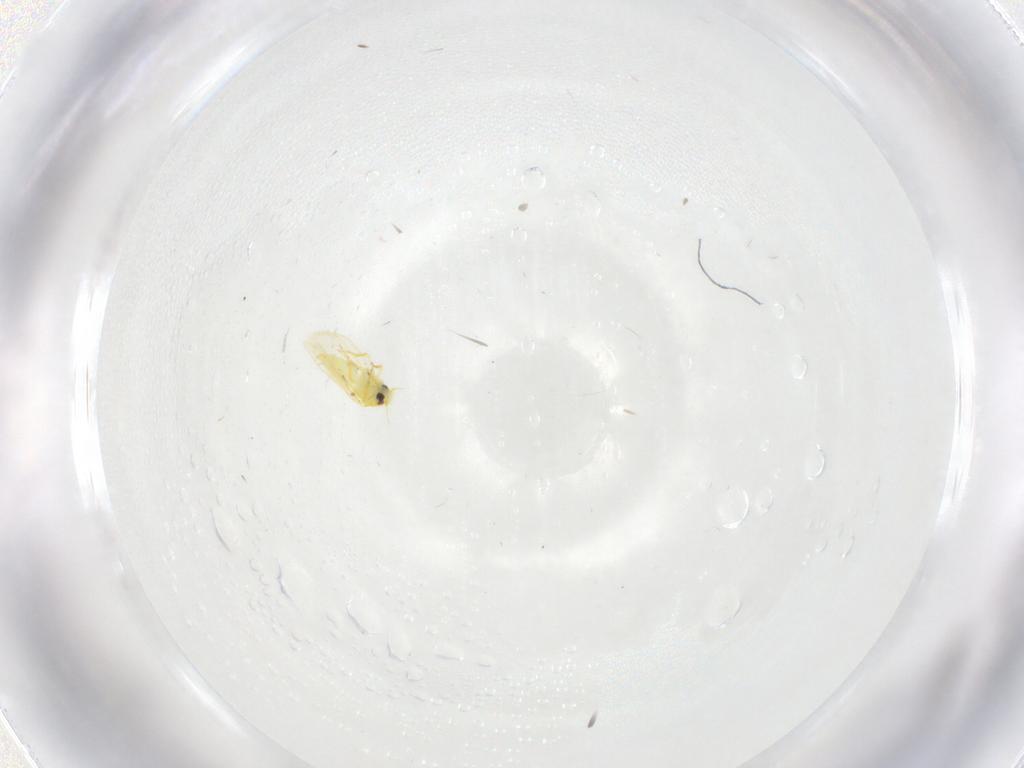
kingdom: Animalia
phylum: Arthropoda
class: Insecta
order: Hemiptera
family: Aleyrodidae
